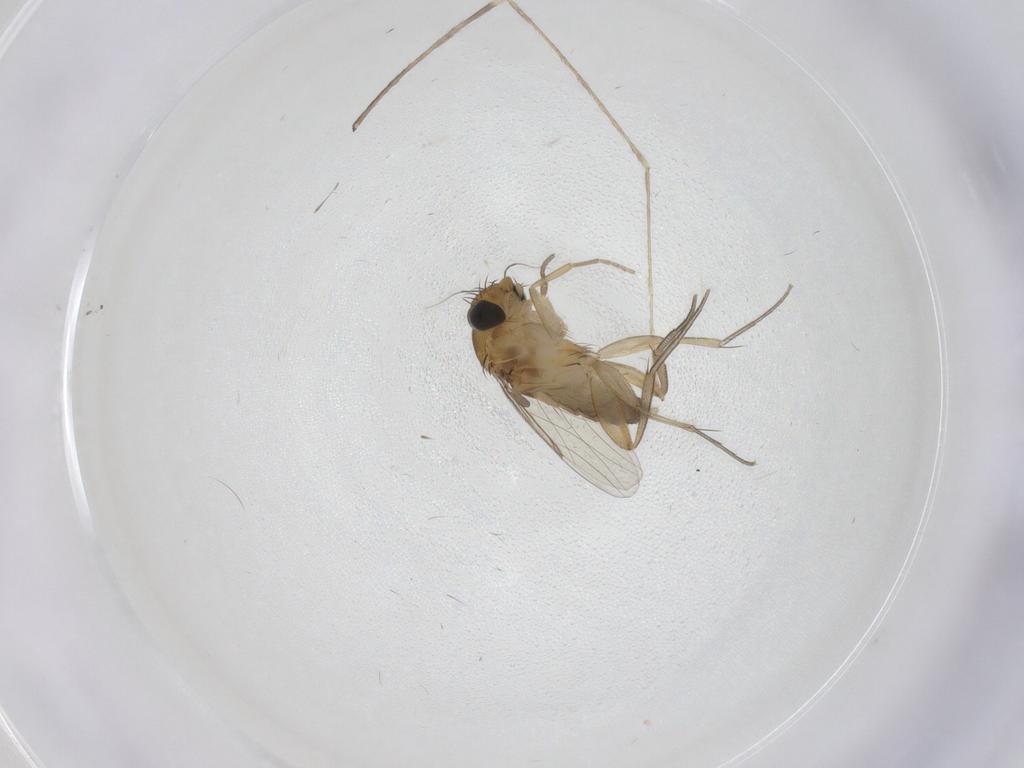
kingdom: Animalia
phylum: Arthropoda
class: Insecta
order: Diptera
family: Phoridae
